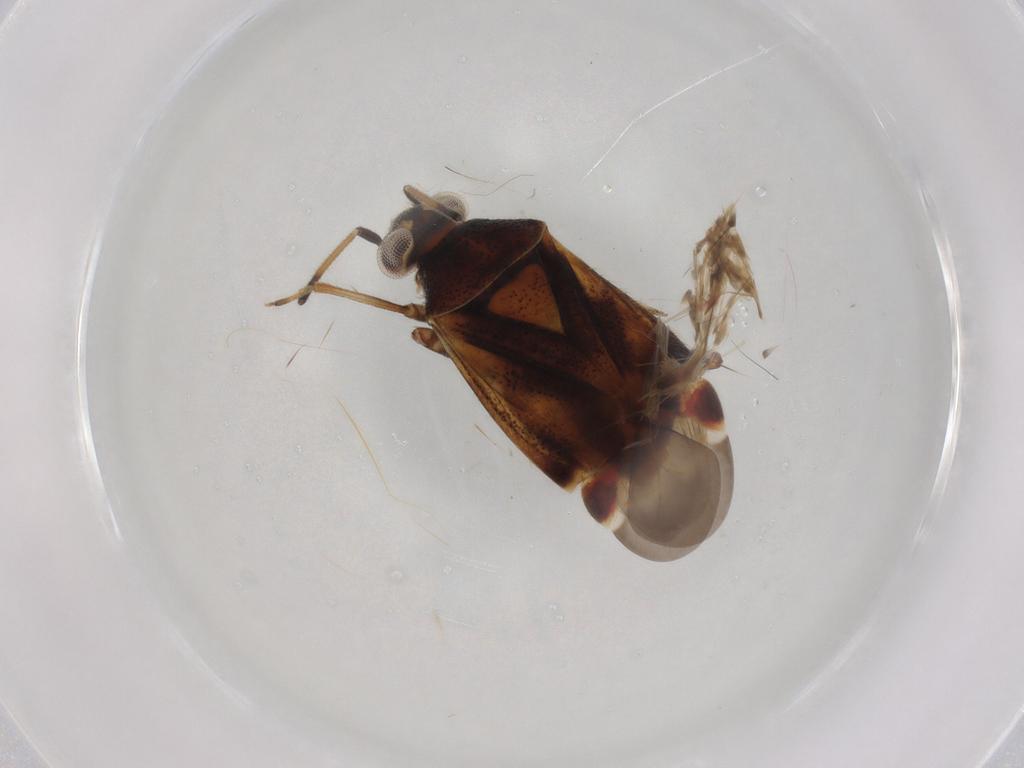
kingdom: Animalia
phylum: Arthropoda
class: Insecta
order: Hemiptera
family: Miridae
